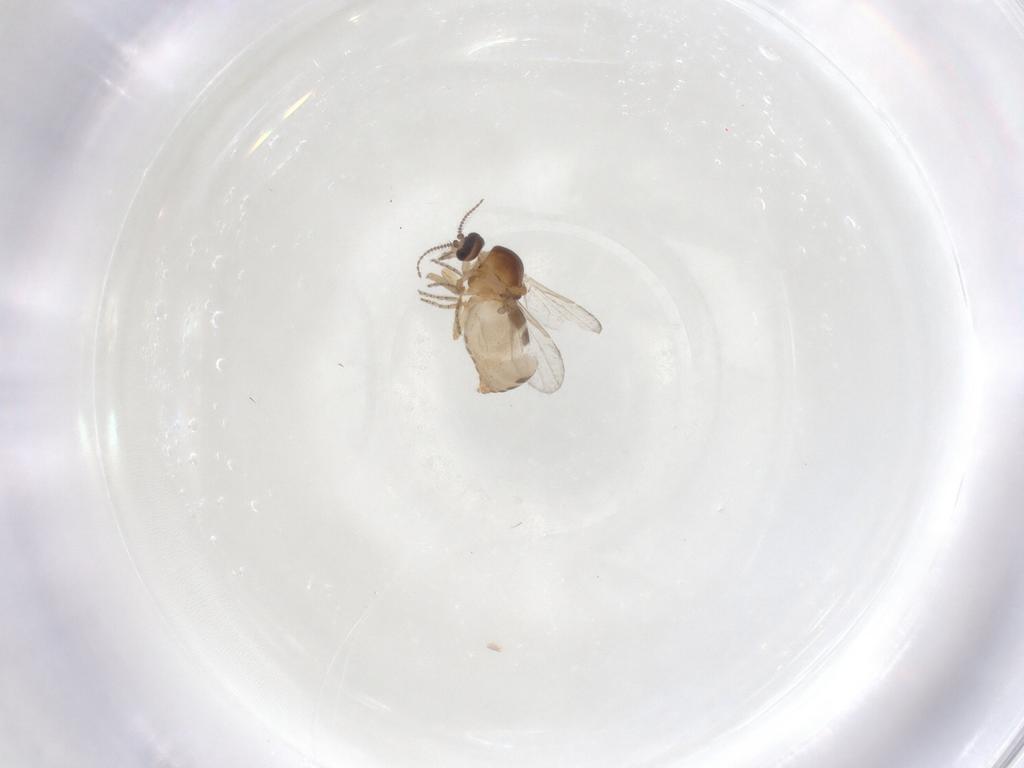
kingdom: Animalia
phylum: Arthropoda
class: Insecta
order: Diptera
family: Ceratopogonidae
